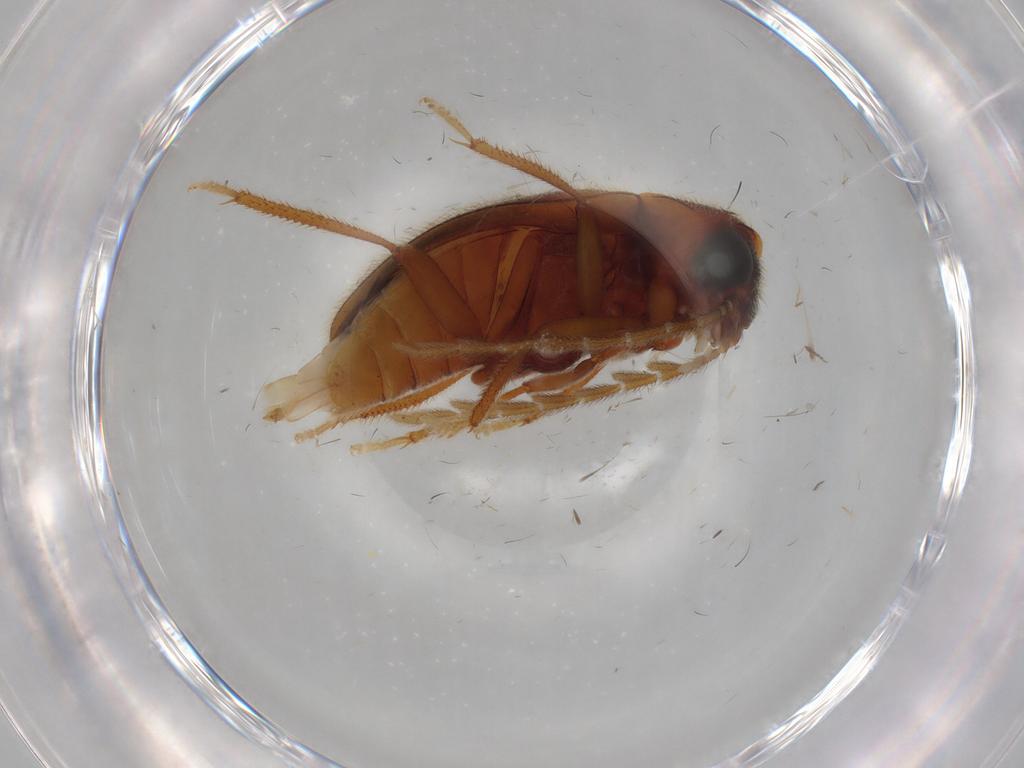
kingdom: Animalia
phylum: Arthropoda
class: Insecta
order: Coleoptera
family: Ptilodactylidae
